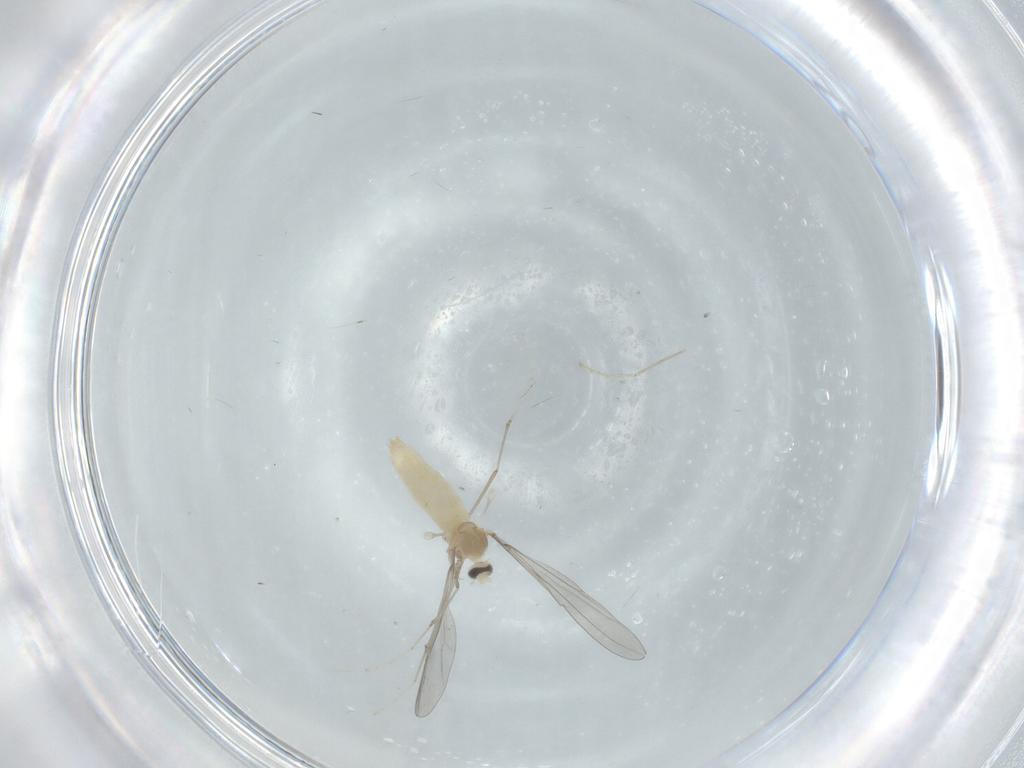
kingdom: Animalia
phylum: Arthropoda
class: Insecta
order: Diptera
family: Cecidomyiidae
